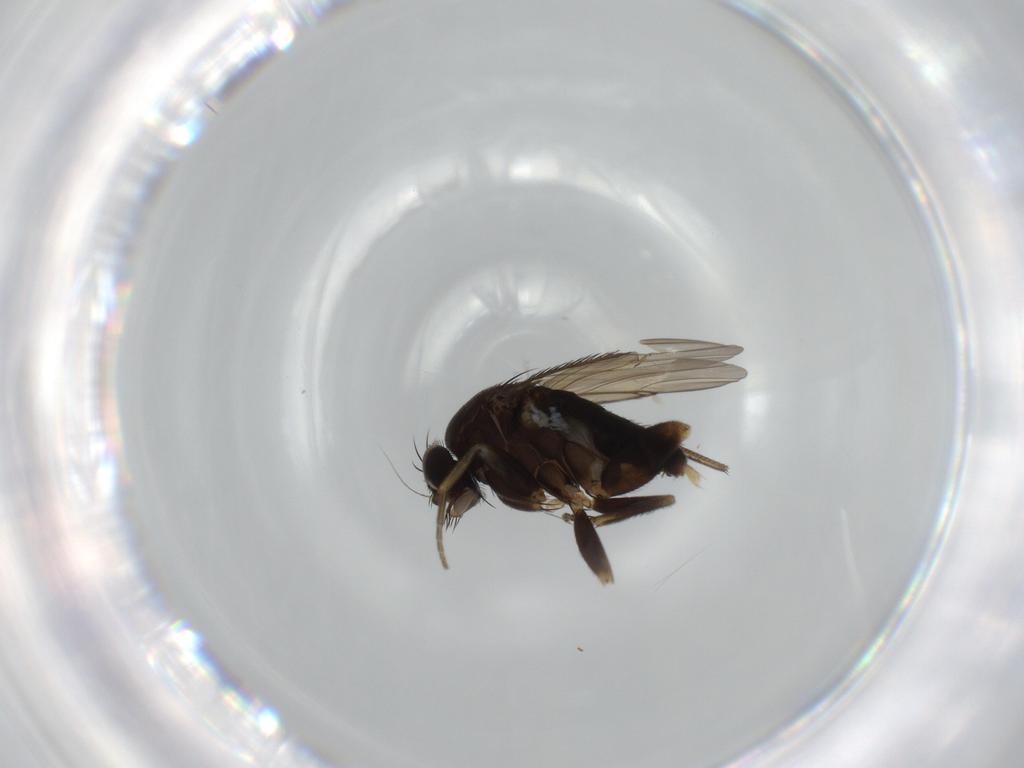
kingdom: Animalia
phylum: Arthropoda
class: Insecta
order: Diptera
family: Phoridae
